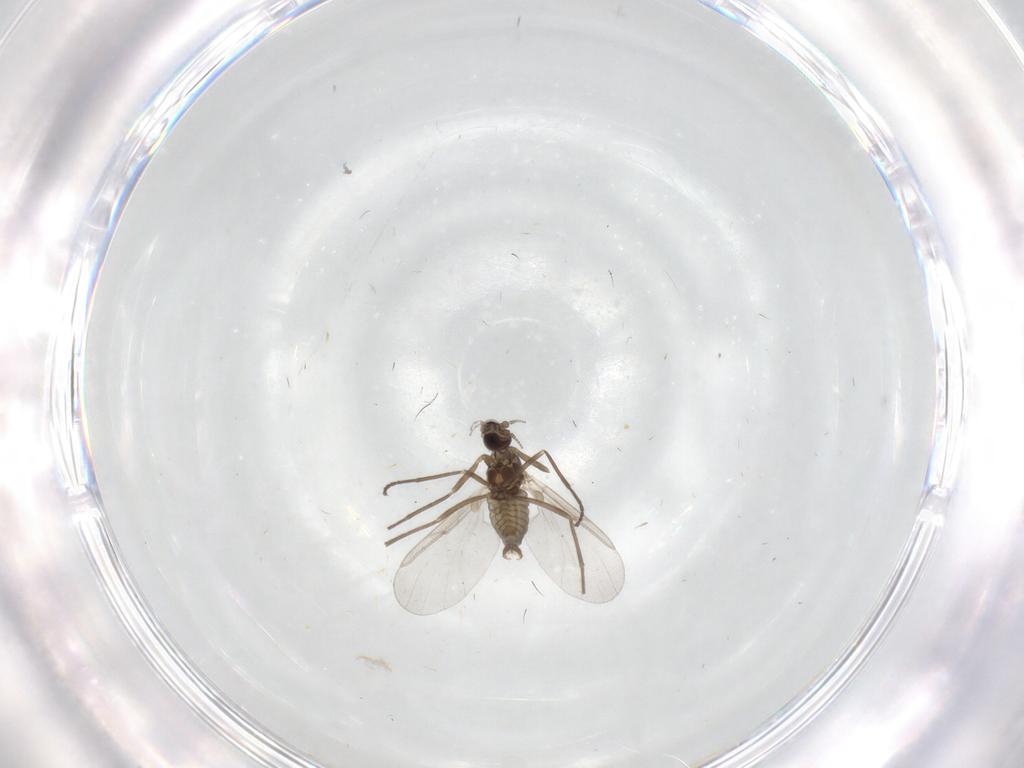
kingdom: Animalia
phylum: Arthropoda
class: Insecta
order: Diptera
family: Cecidomyiidae
